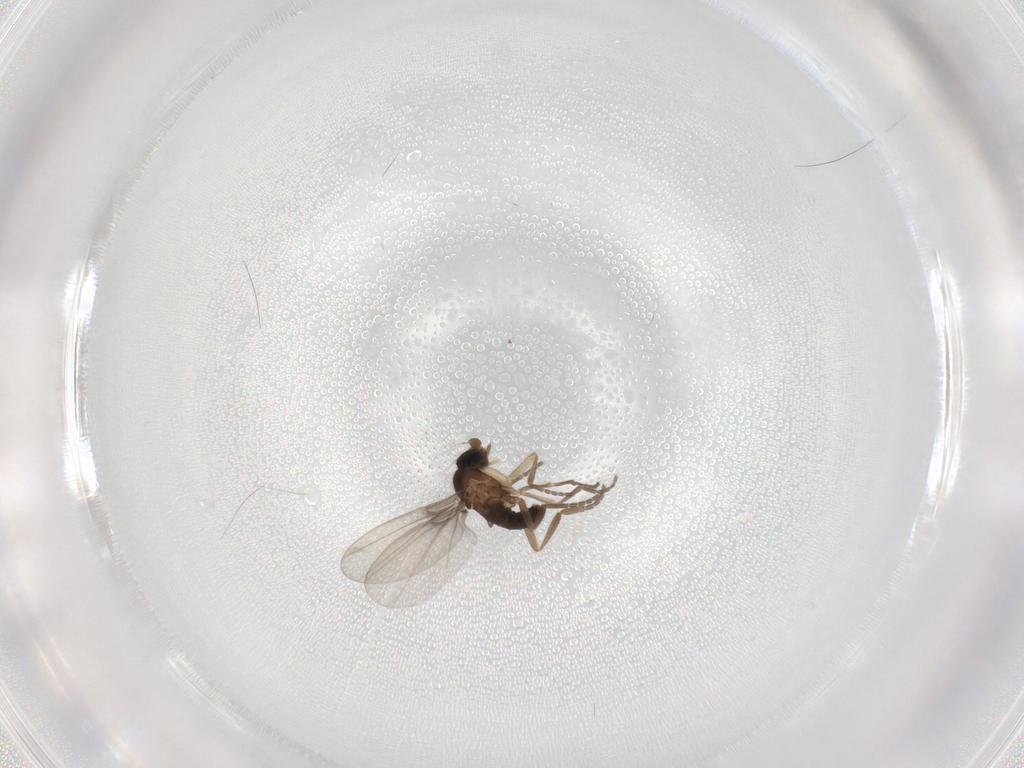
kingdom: Animalia
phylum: Arthropoda
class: Insecta
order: Diptera
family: Phoridae
